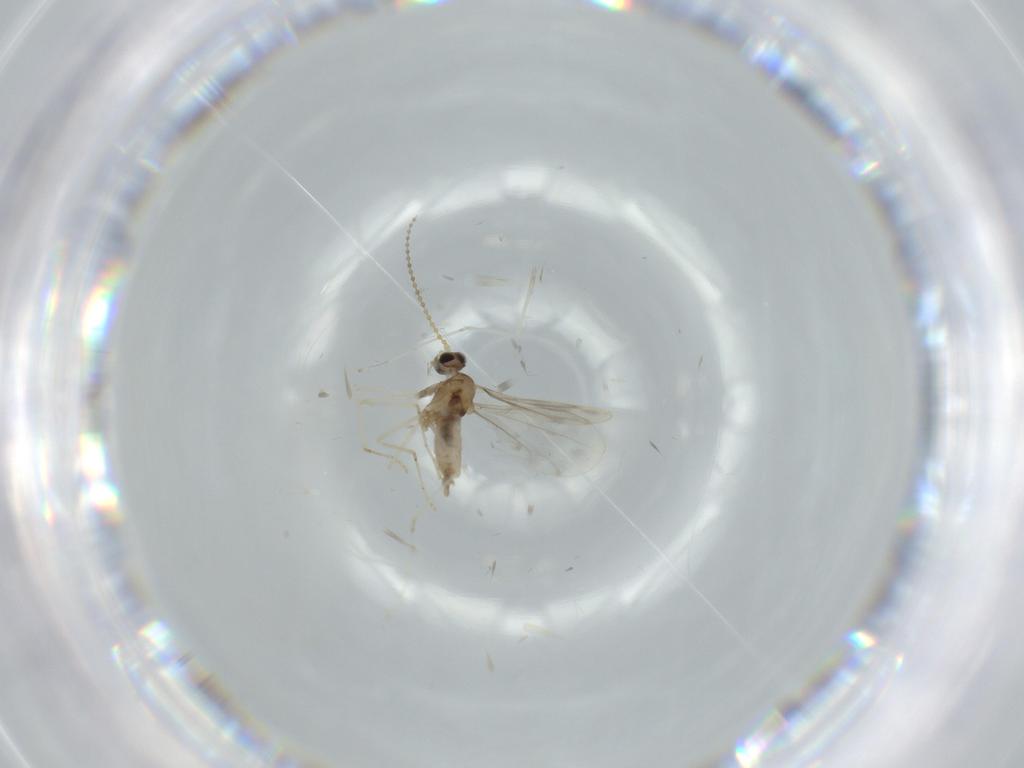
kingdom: Animalia
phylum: Arthropoda
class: Insecta
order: Diptera
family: Cecidomyiidae
